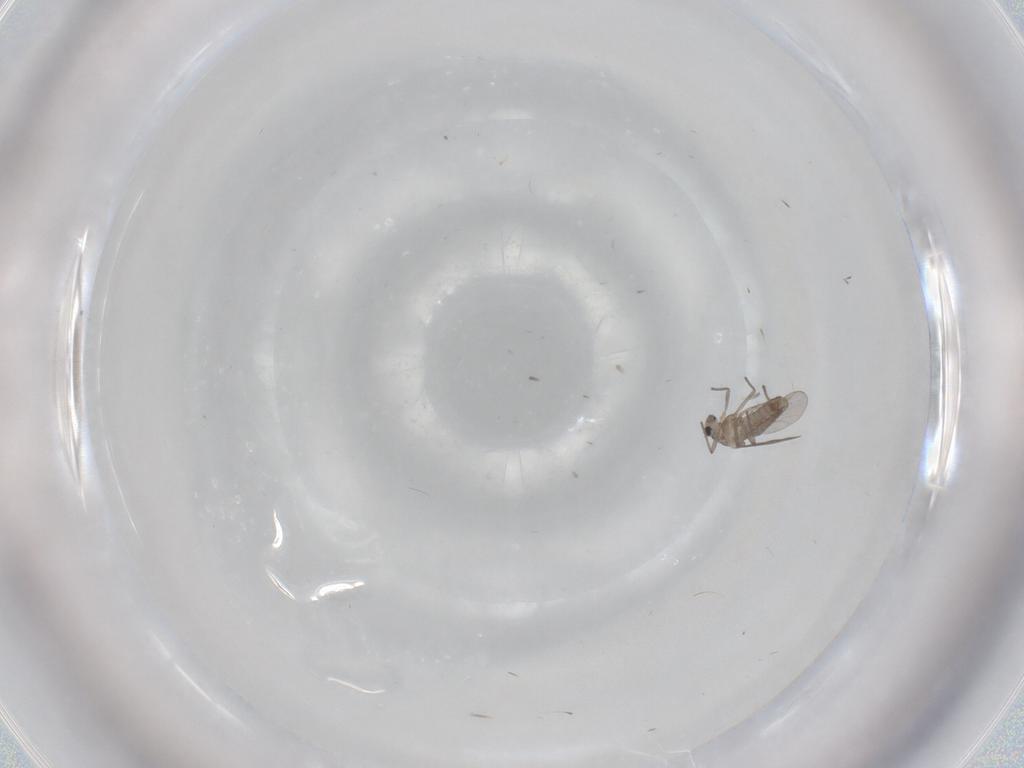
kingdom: Animalia
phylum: Arthropoda
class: Insecta
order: Diptera
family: Chironomidae
